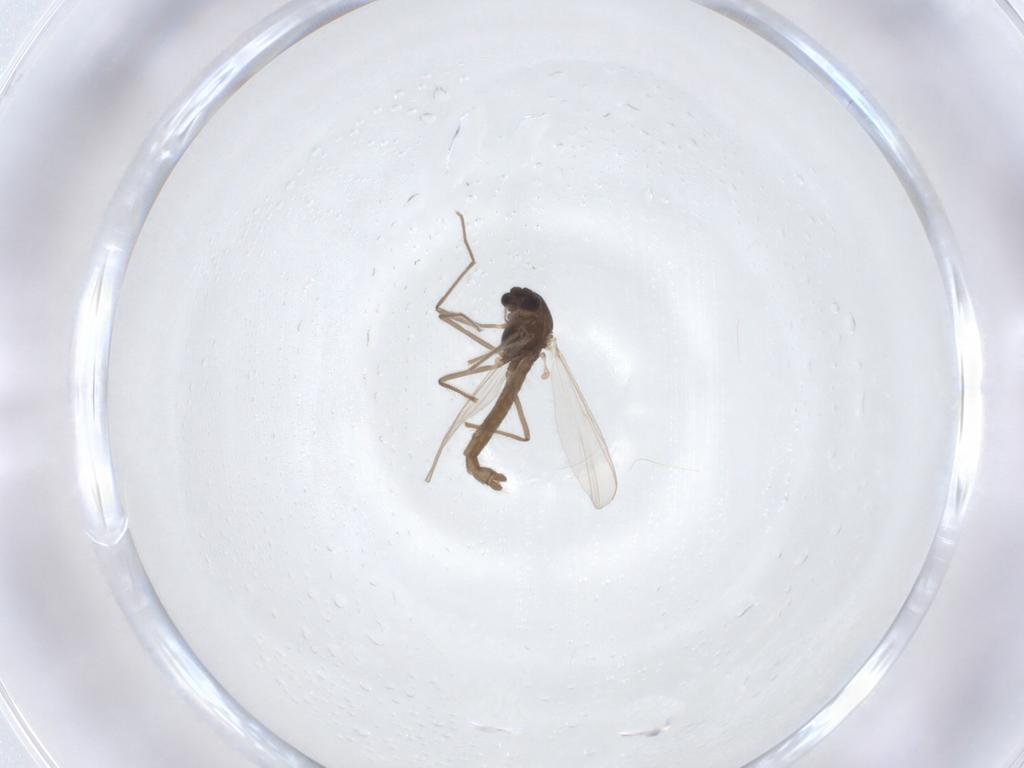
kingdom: Animalia
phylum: Arthropoda
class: Insecta
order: Diptera
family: Chironomidae
